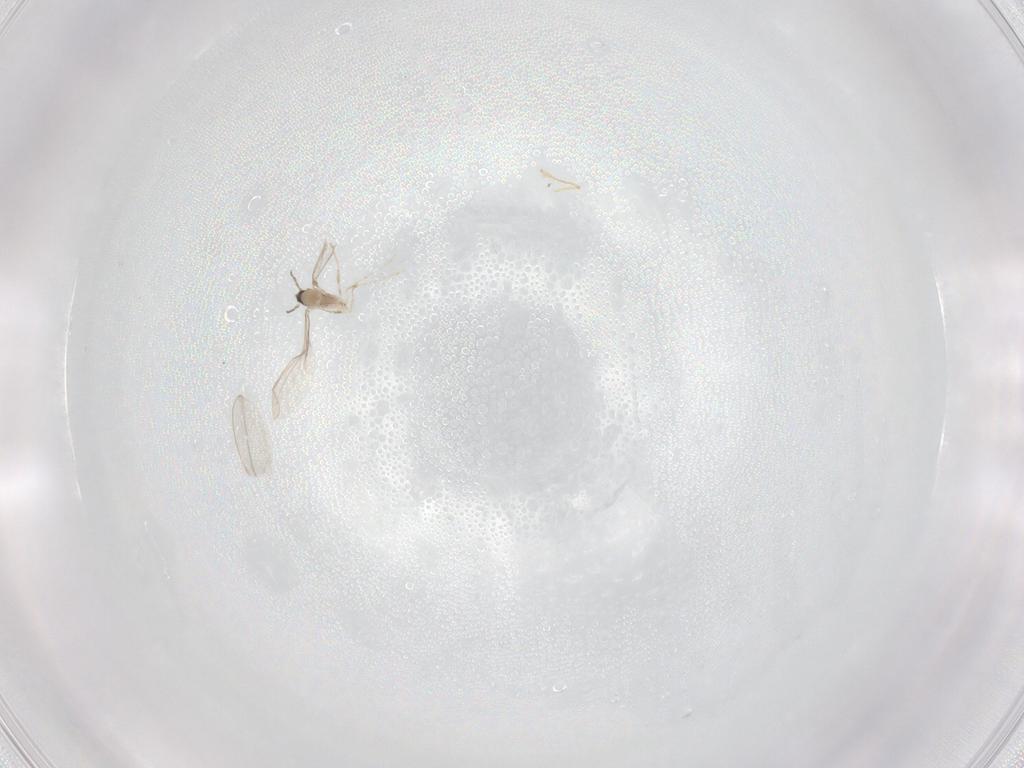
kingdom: Animalia
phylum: Arthropoda
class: Insecta
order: Diptera
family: Cecidomyiidae
